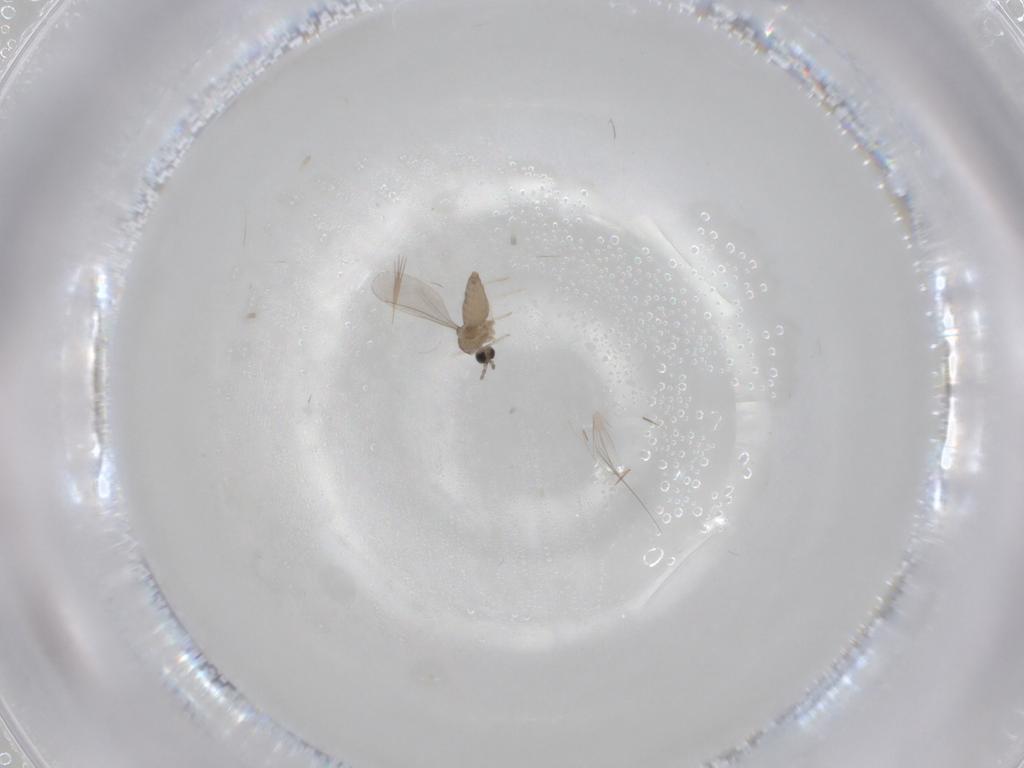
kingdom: Animalia
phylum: Arthropoda
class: Insecta
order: Diptera
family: Cecidomyiidae
